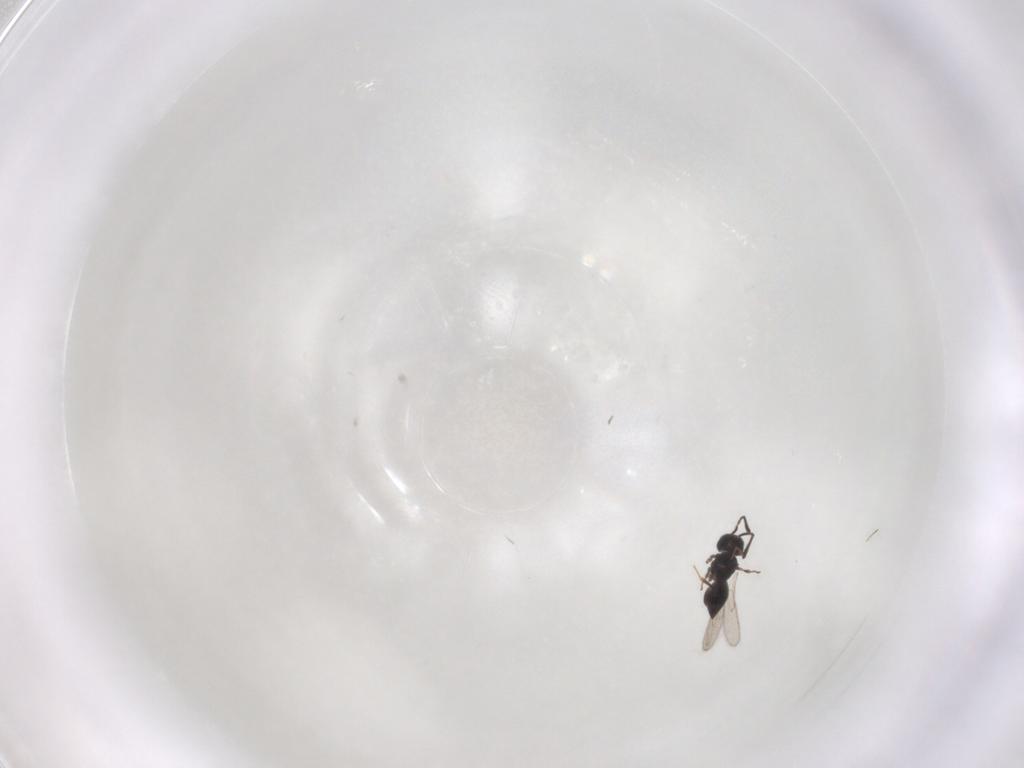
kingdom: Animalia
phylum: Arthropoda
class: Insecta
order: Hymenoptera
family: Scelionidae
